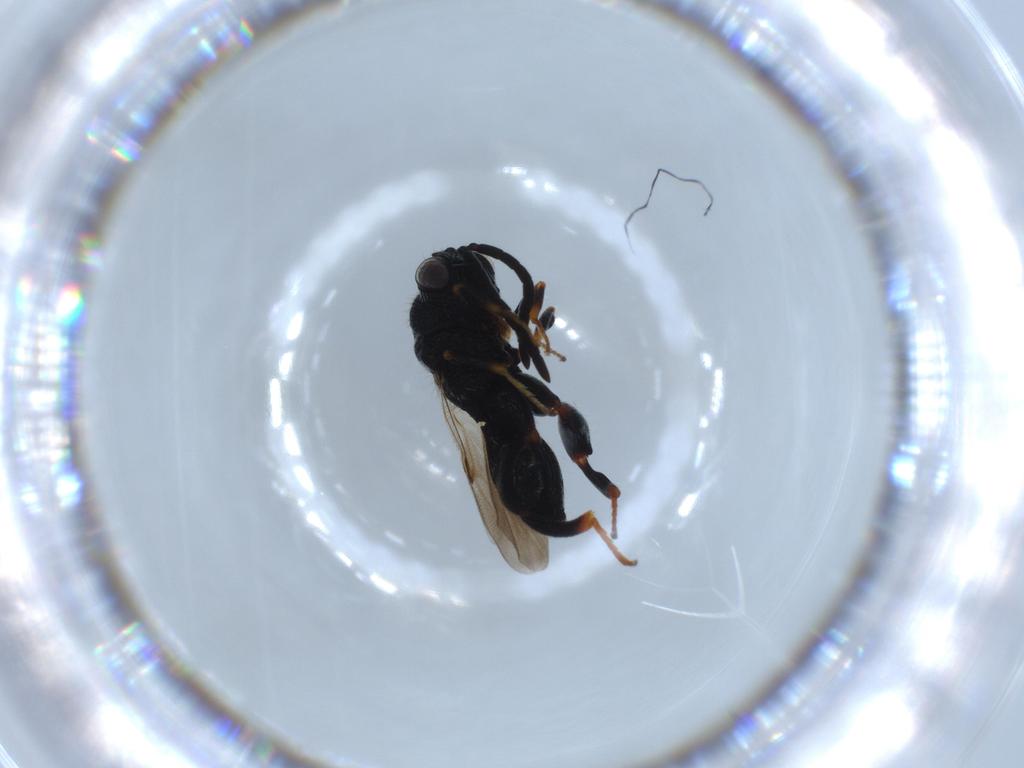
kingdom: Animalia
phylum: Arthropoda
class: Insecta
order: Hymenoptera
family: Chalcididae
